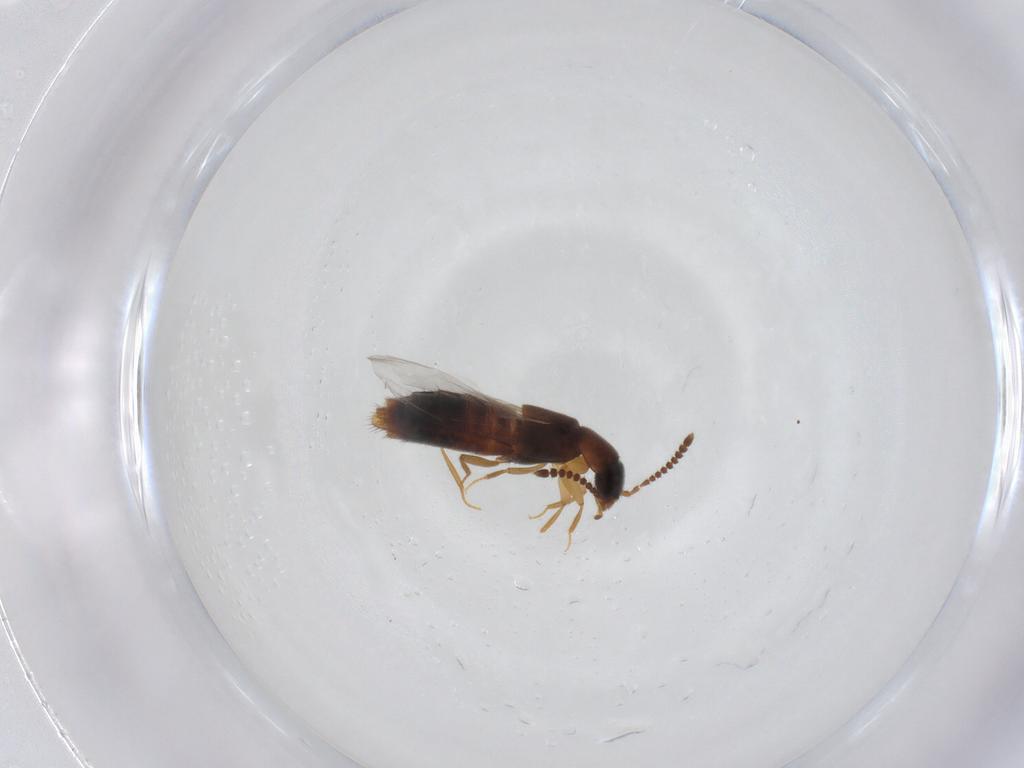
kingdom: Animalia
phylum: Arthropoda
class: Insecta
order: Coleoptera
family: Staphylinidae
